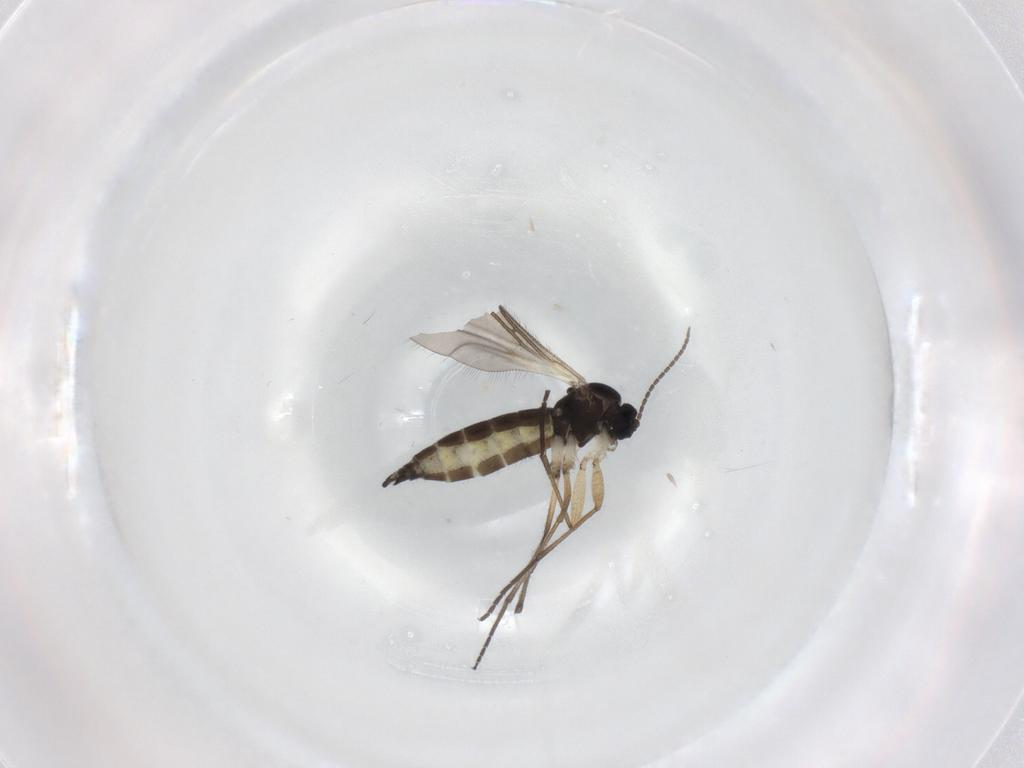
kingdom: Animalia
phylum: Arthropoda
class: Insecta
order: Diptera
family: Sciaridae
